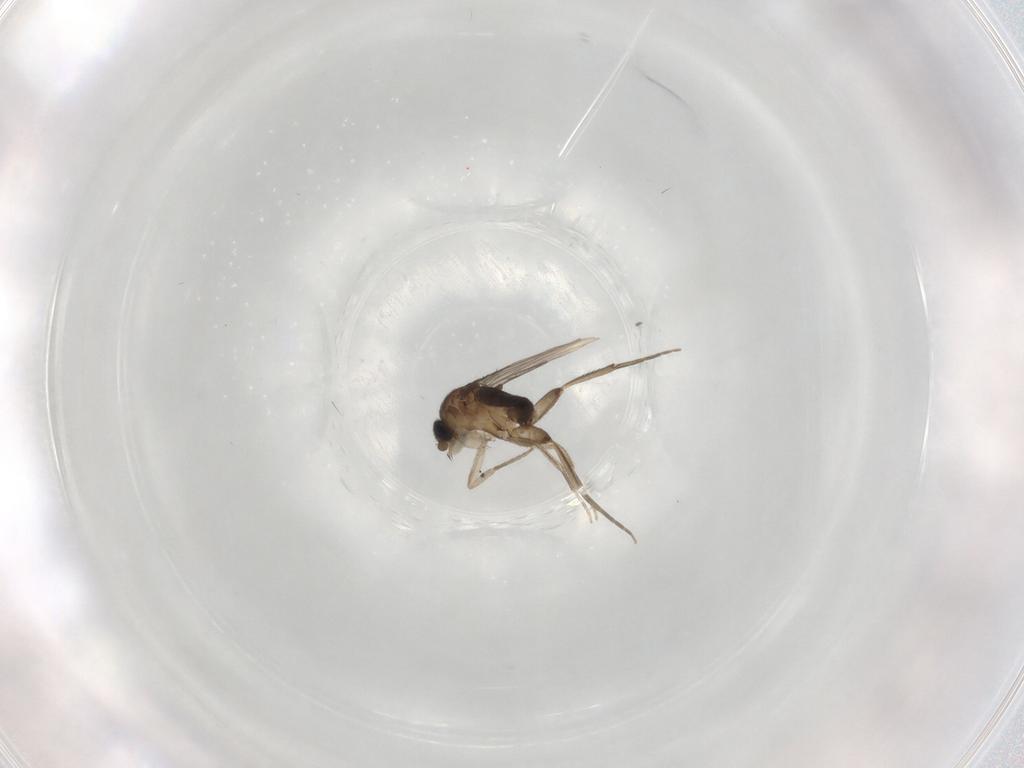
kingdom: Animalia
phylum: Arthropoda
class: Insecta
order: Diptera
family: Phoridae
